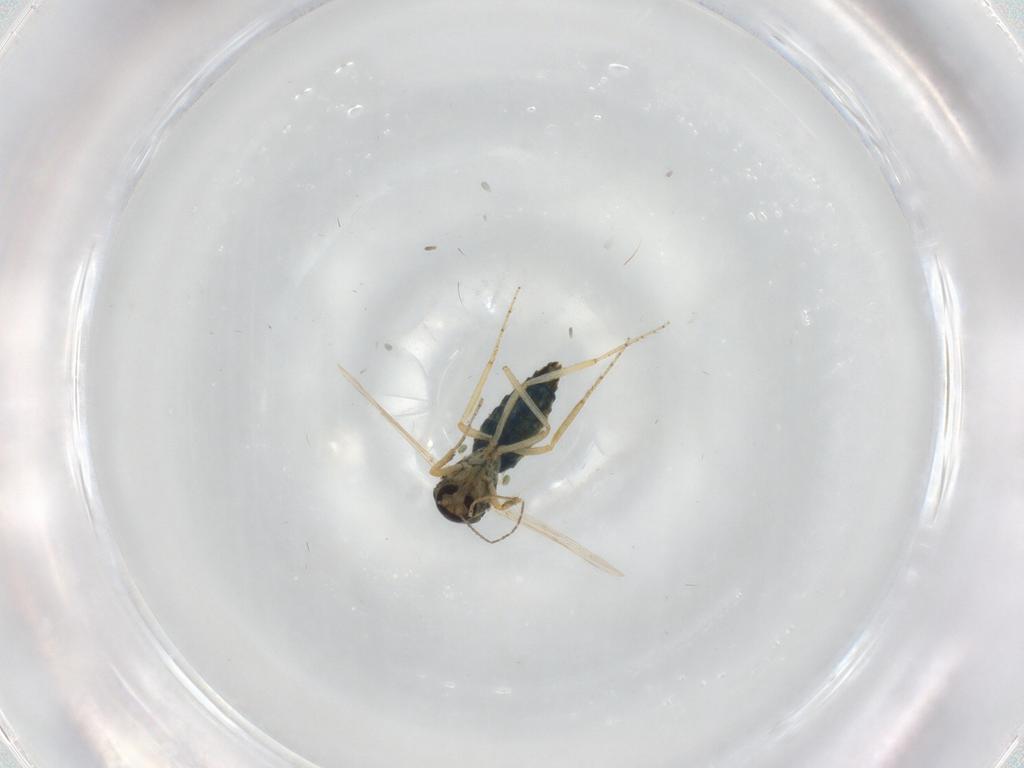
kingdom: Animalia
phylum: Arthropoda
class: Insecta
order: Diptera
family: Ceratopogonidae
